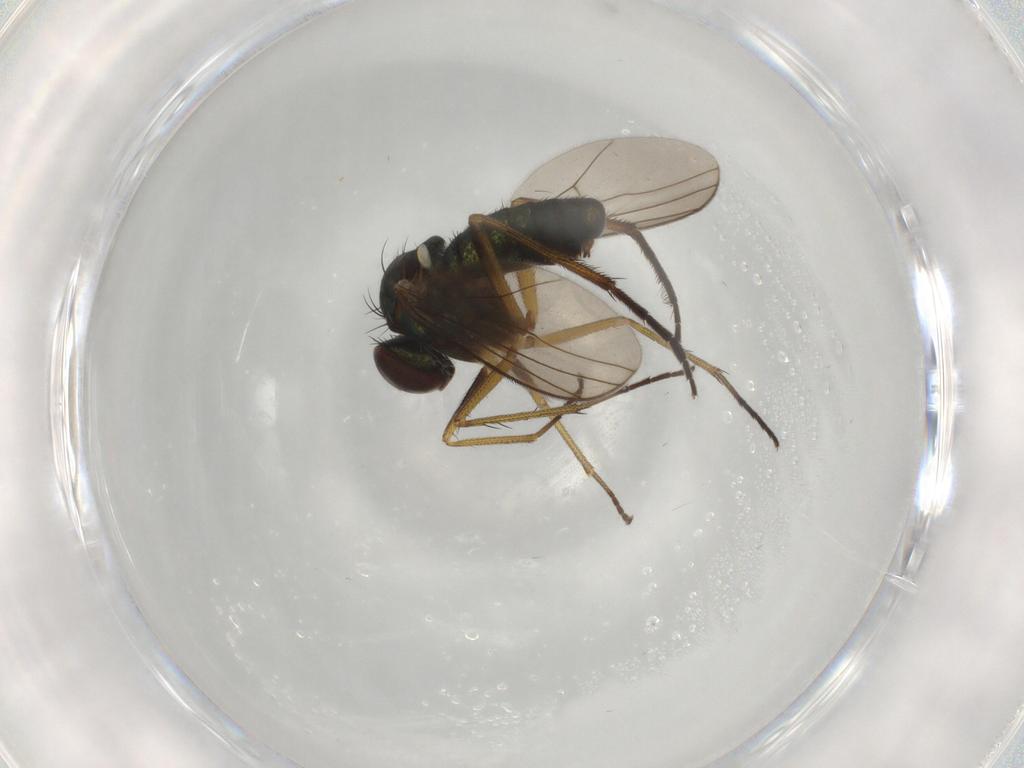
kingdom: Animalia
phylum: Arthropoda
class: Insecta
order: Diptera
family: Dolichopodidae
